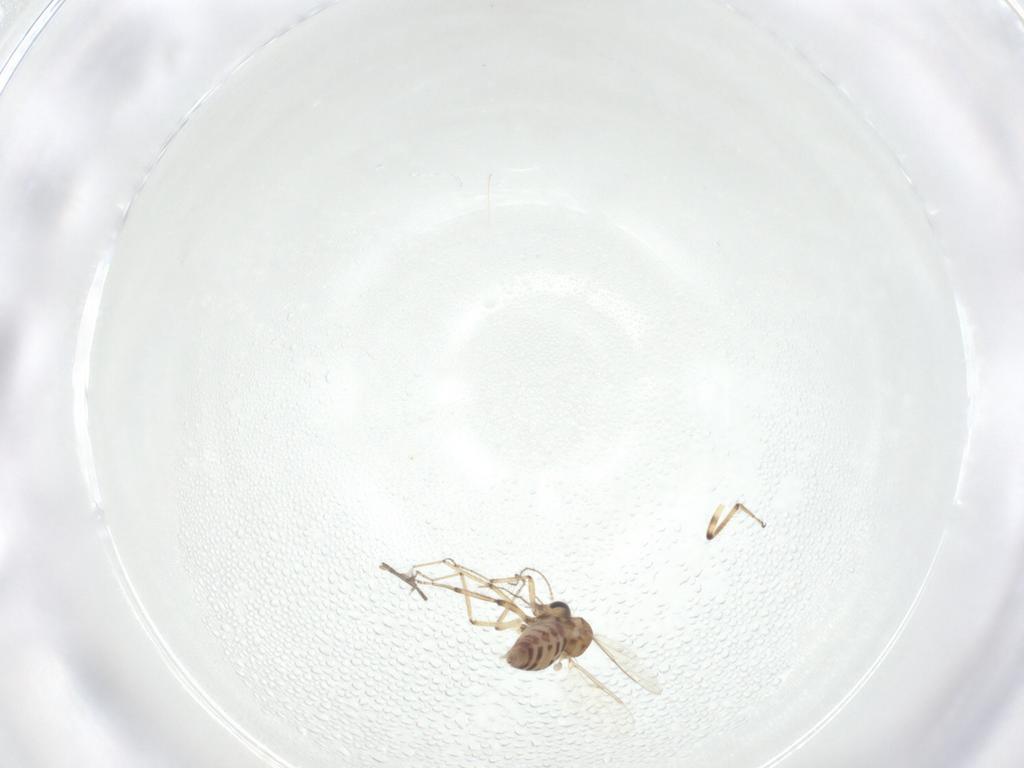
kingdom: Animalia
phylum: Arthropoda
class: Insecta
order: Diptera
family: Ceratopogonidae
